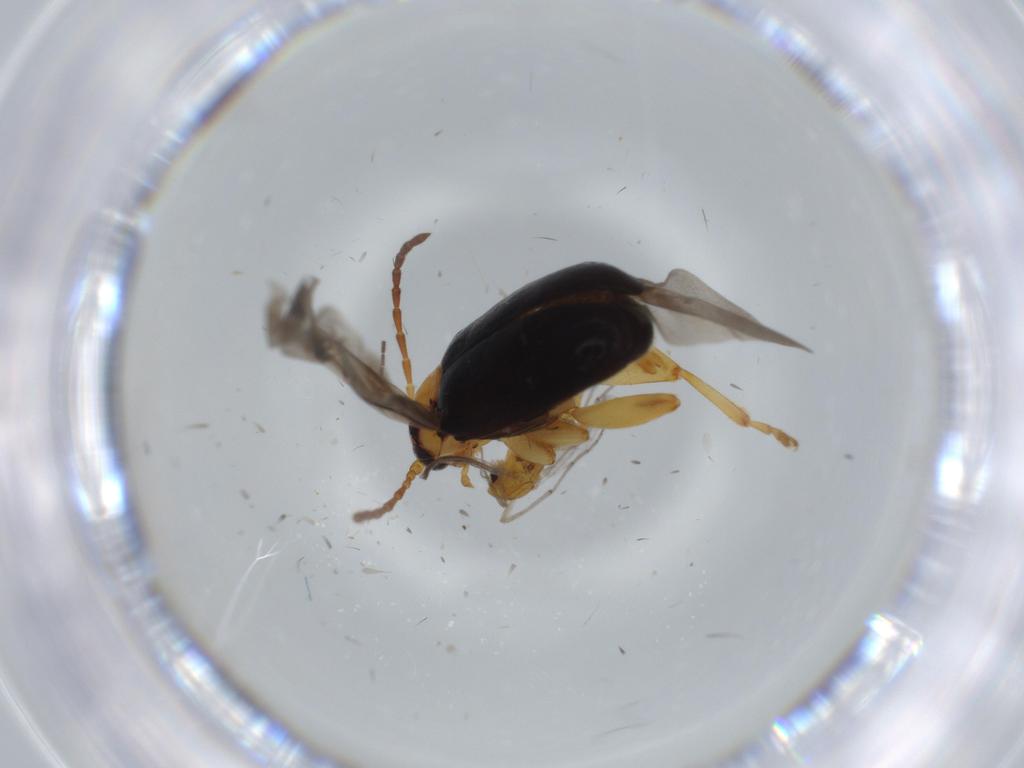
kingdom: Animalia
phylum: Arthropoda
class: Insecta
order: Coleoptera
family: Chrysomelidae
